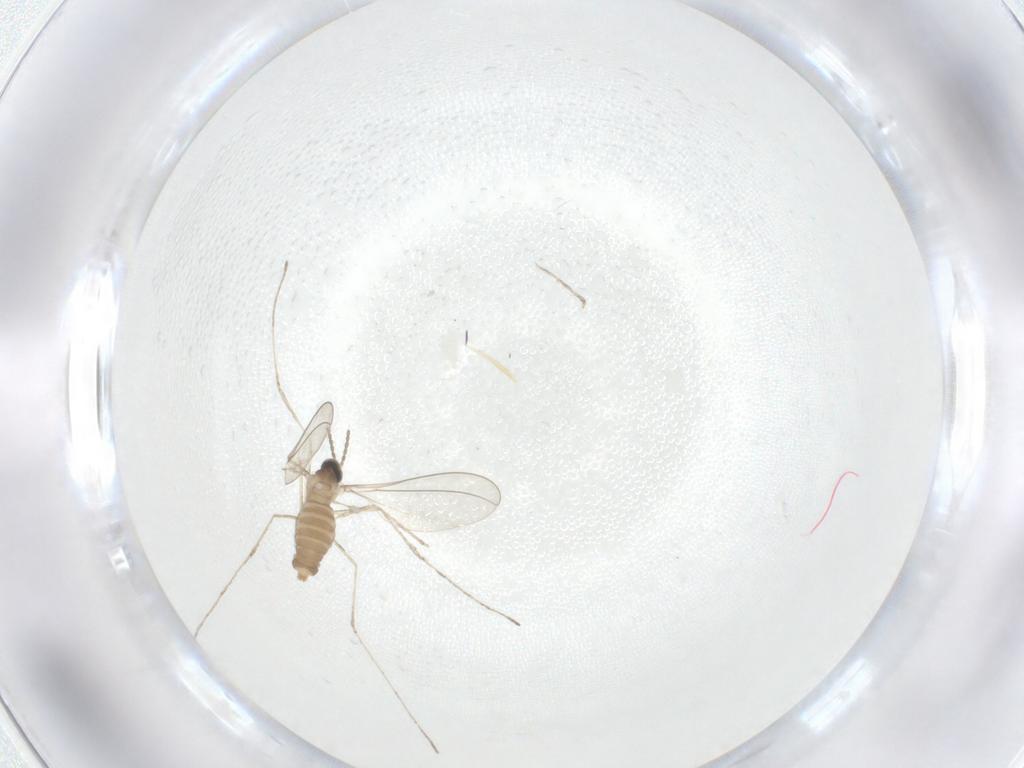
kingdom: Animalia
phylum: Arthropoda
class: Insecta
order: Diptera
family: Cecidomyiidae
